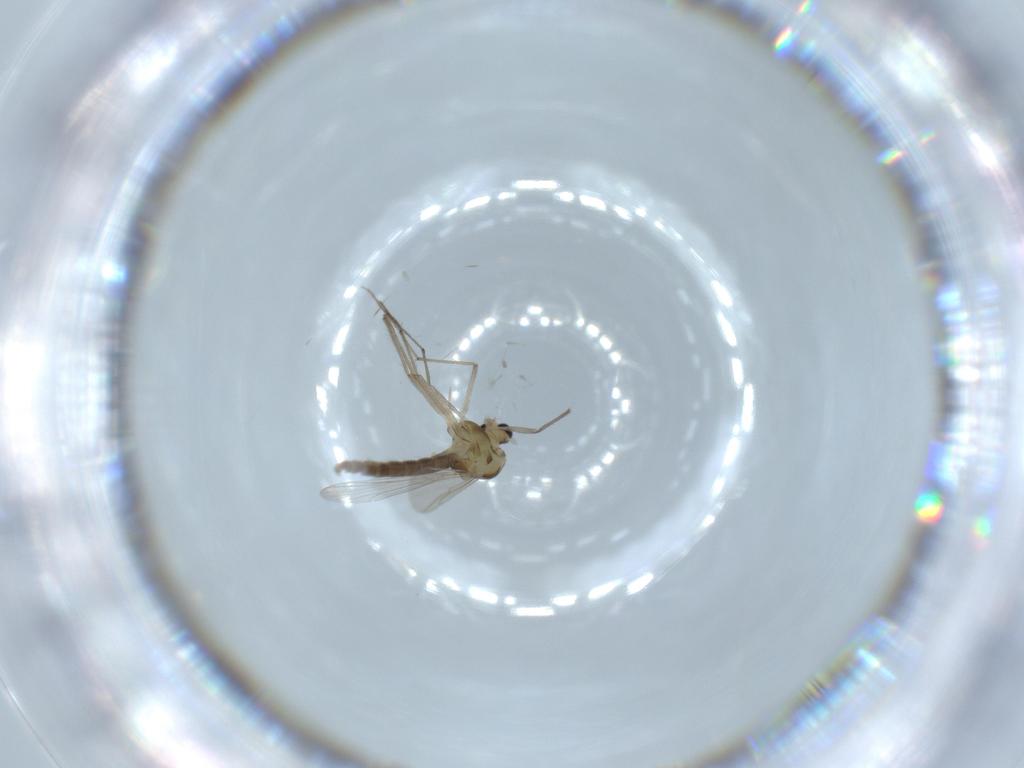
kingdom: Animalia
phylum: Arthropoda
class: Insecta
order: Diptera
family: Chironomidae
